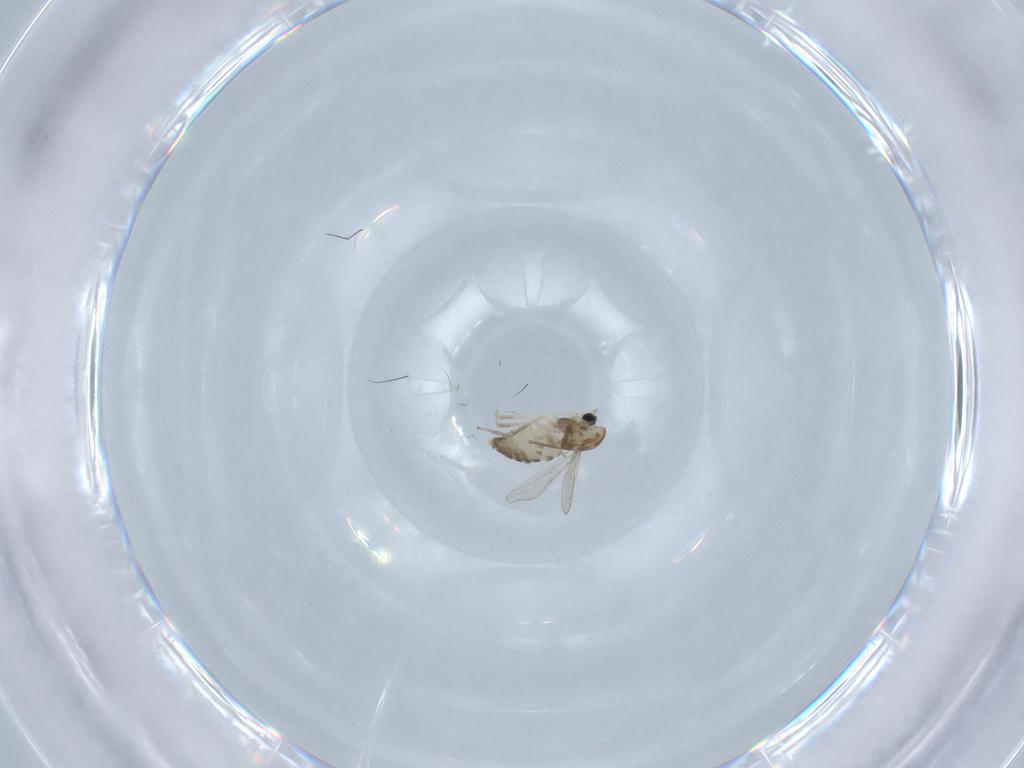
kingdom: Animalia
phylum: Arthropoda
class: Insecta
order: Diptera
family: Chironomidae
